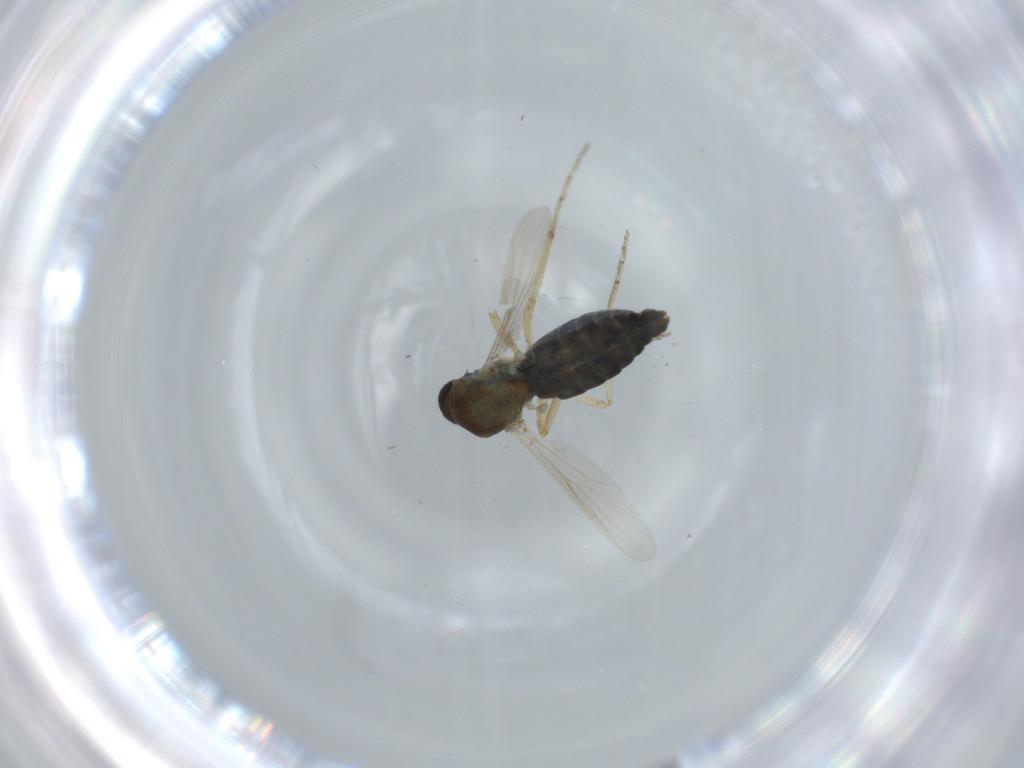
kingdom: Animalia
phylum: Arthropoda
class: Insecta
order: Diptera
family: Ceratopogonidae
